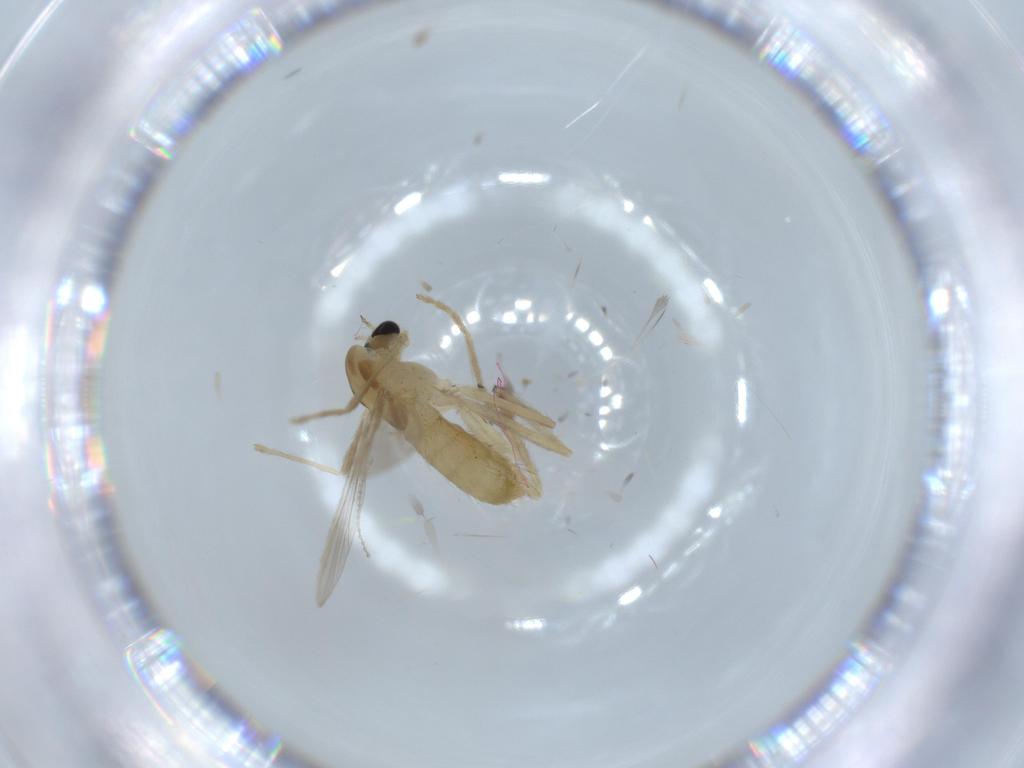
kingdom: Animalia
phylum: Arthropoda
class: Insecta
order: Diptera
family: Chironomidae
